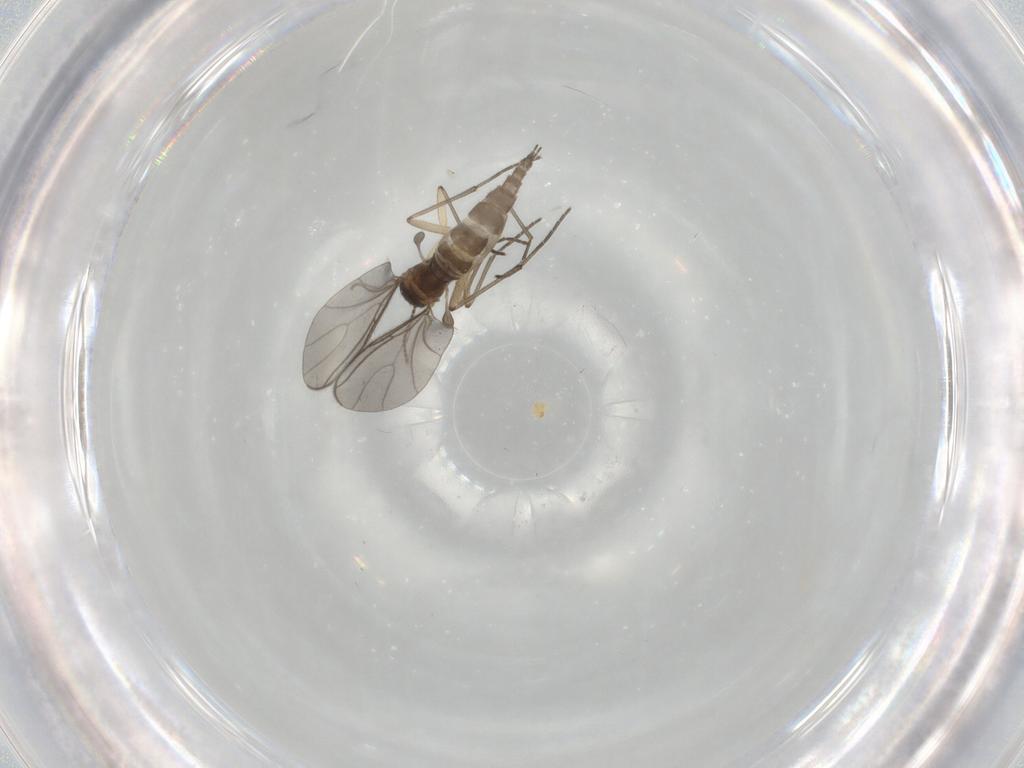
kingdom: Animalia
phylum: Arthropoda
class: Insecta
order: Diptera
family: Sciaridae
